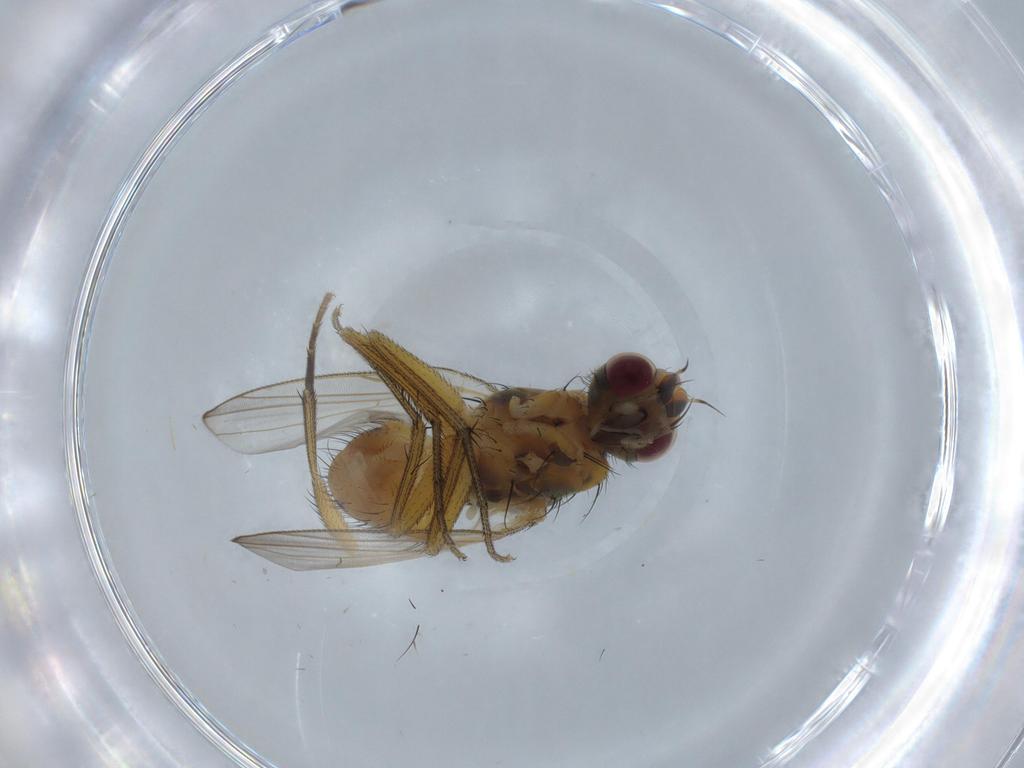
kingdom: Animalia
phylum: Arthropoda
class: Insecta
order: Diptera
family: Muscidae
